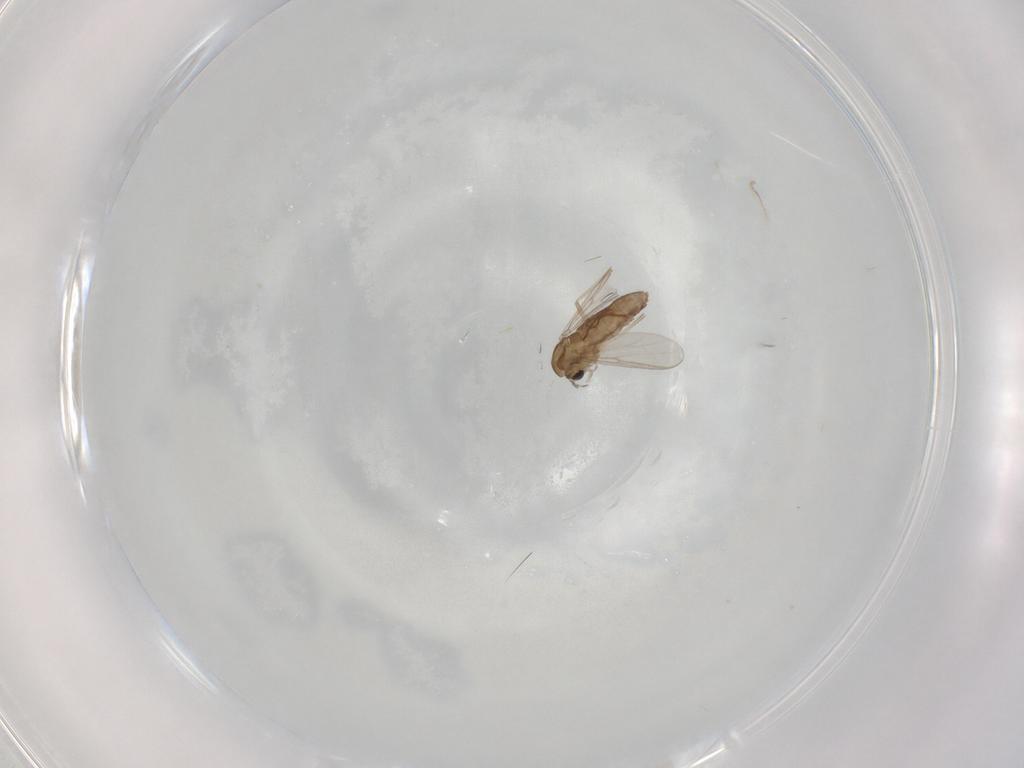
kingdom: Animalia
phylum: Arthropoda
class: Insecta
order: Diptera
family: Chironomidae
